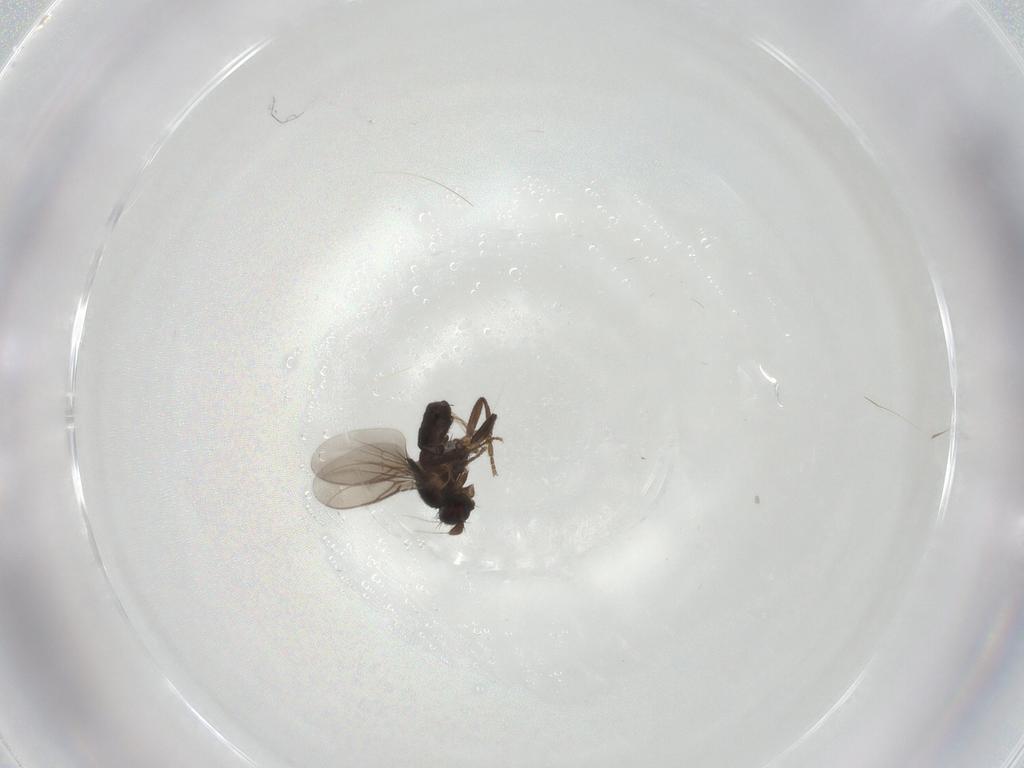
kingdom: Animalia
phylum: Arthropoda
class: Insecta
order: Diptera
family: Sphaeroceridae
